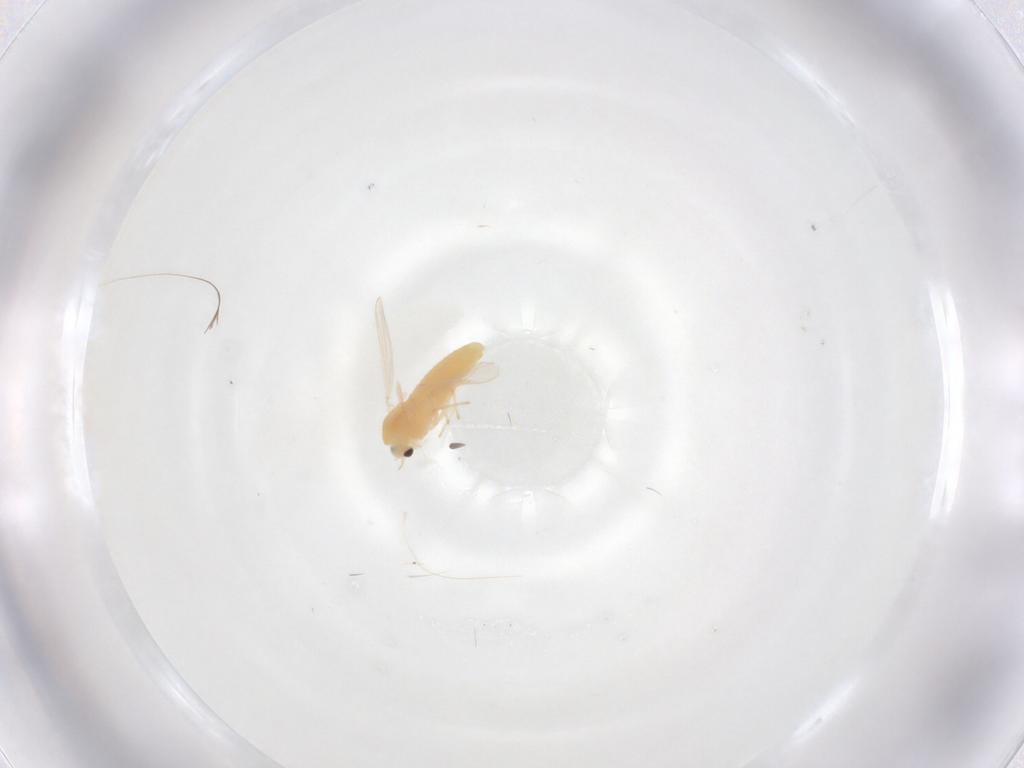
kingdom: Animalia
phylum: Arthropoda
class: Insecta
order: Diptera
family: Chironomidae
